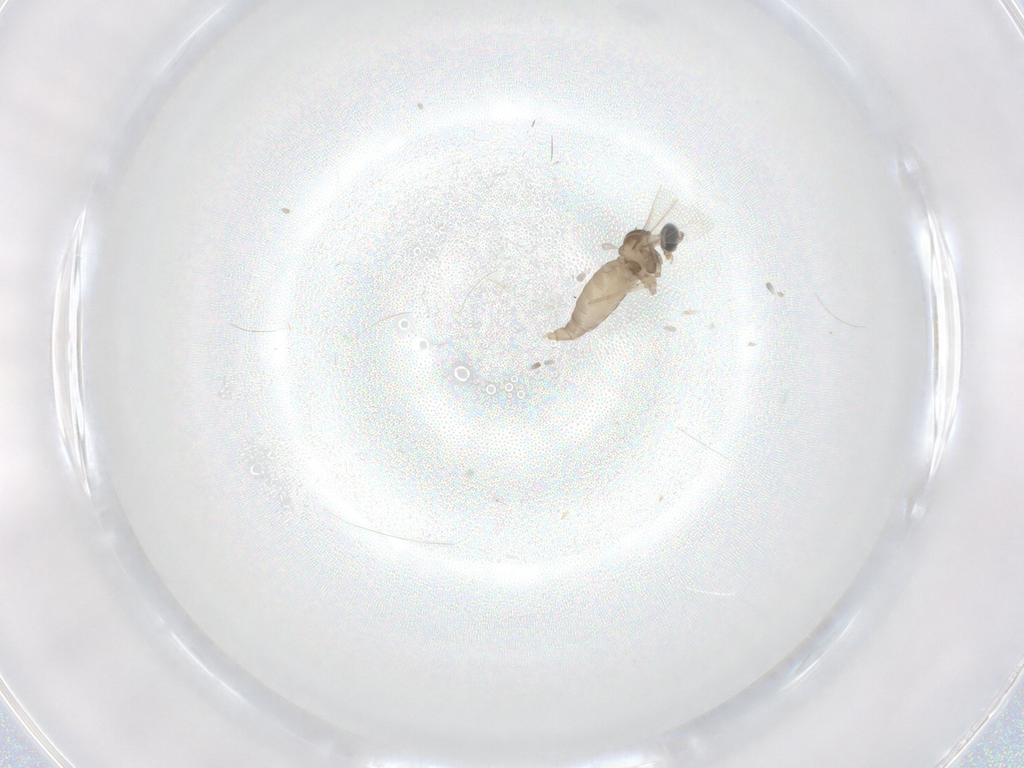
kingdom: Animalia
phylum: Arthropoda
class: Insecta
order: Diptera
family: Cecidomyiidae
